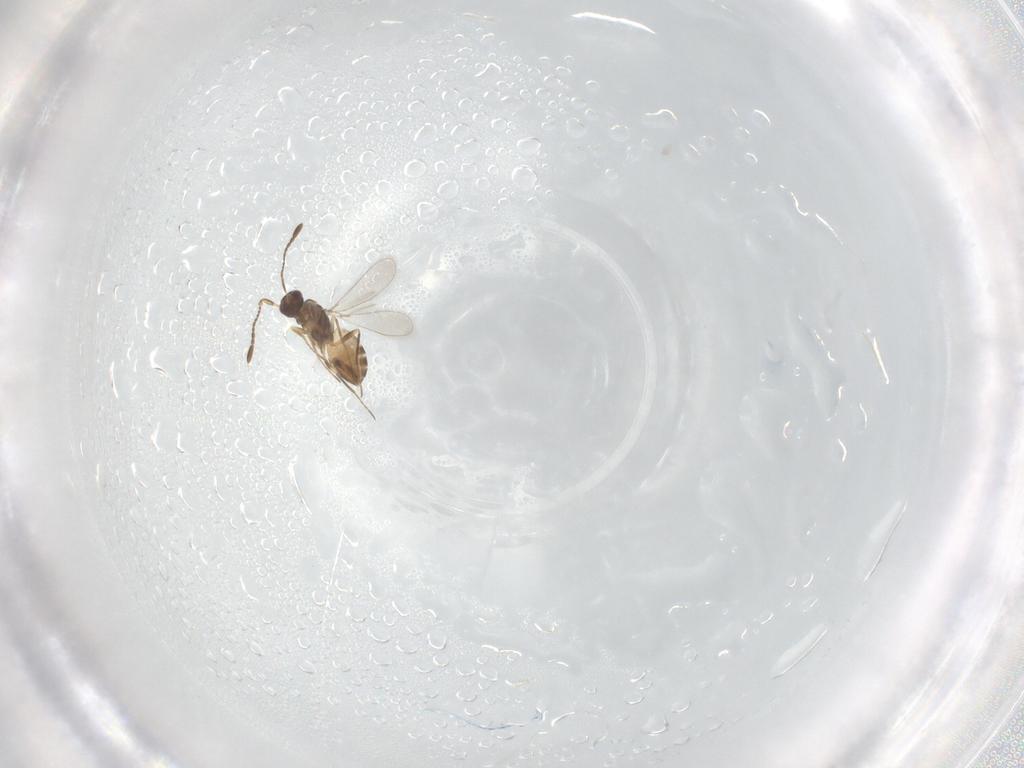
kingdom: Animalia
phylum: Arthropoda
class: Insecta
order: Hymenoptera
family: Mymaridae
